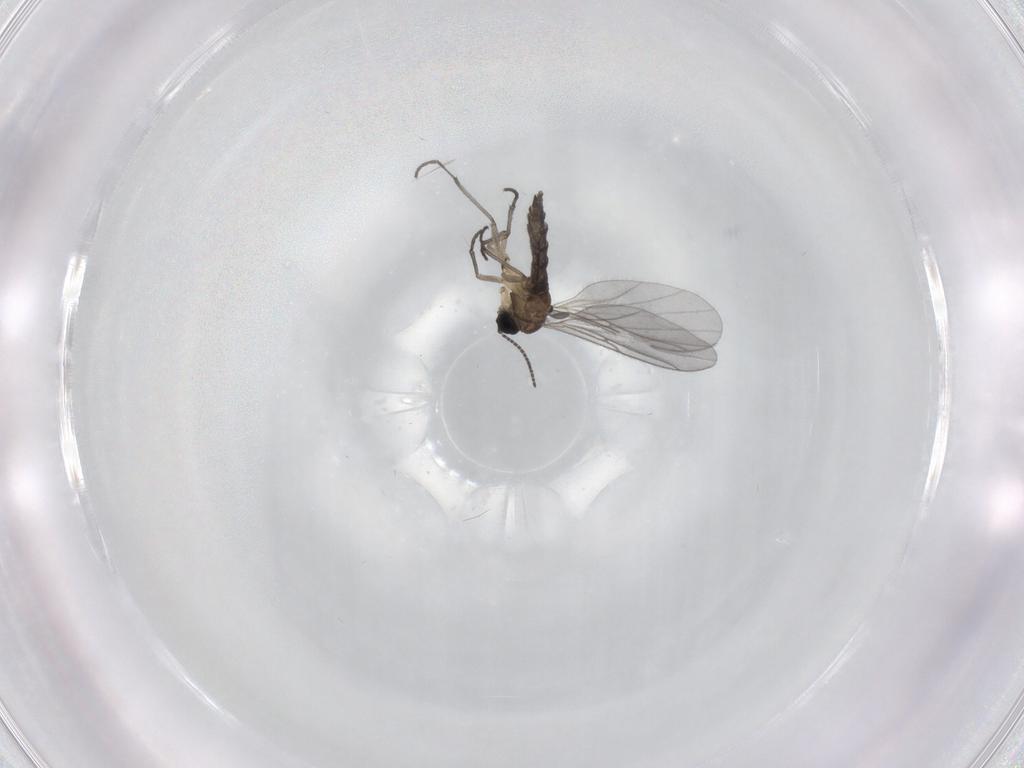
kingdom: Animalia
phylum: Arthropoda
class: Insecta
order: Diptera
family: Sciaridae
